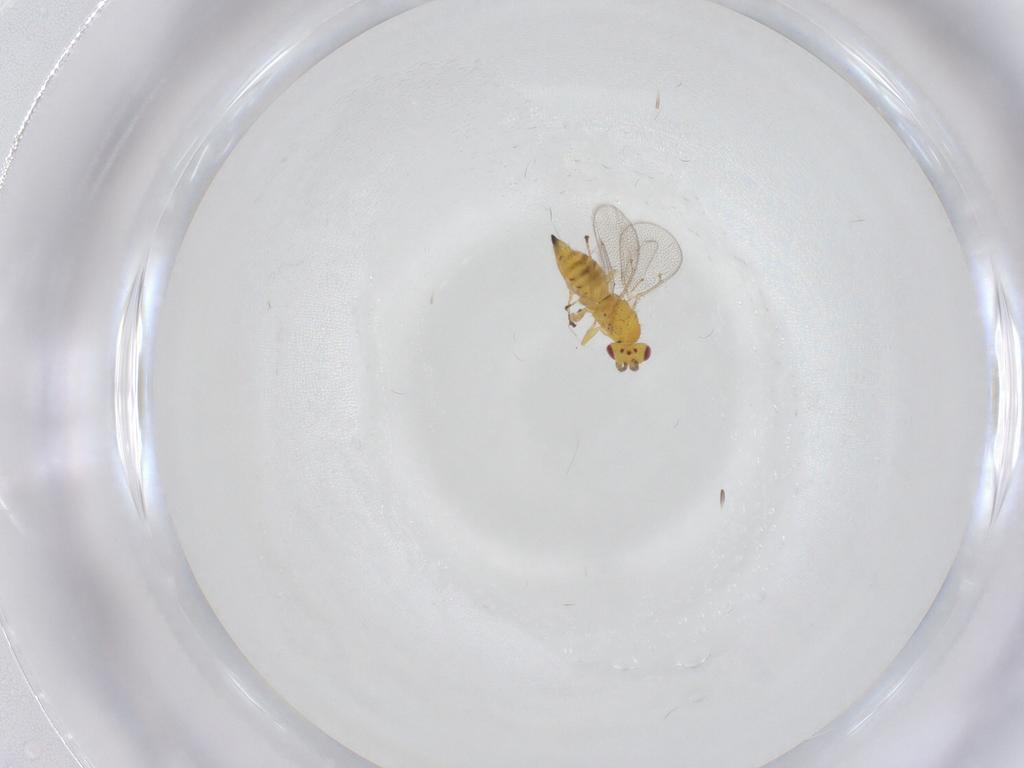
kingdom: Animalia
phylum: Arthropoda
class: Insecta
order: Hymenoptera
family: Eulophidae
